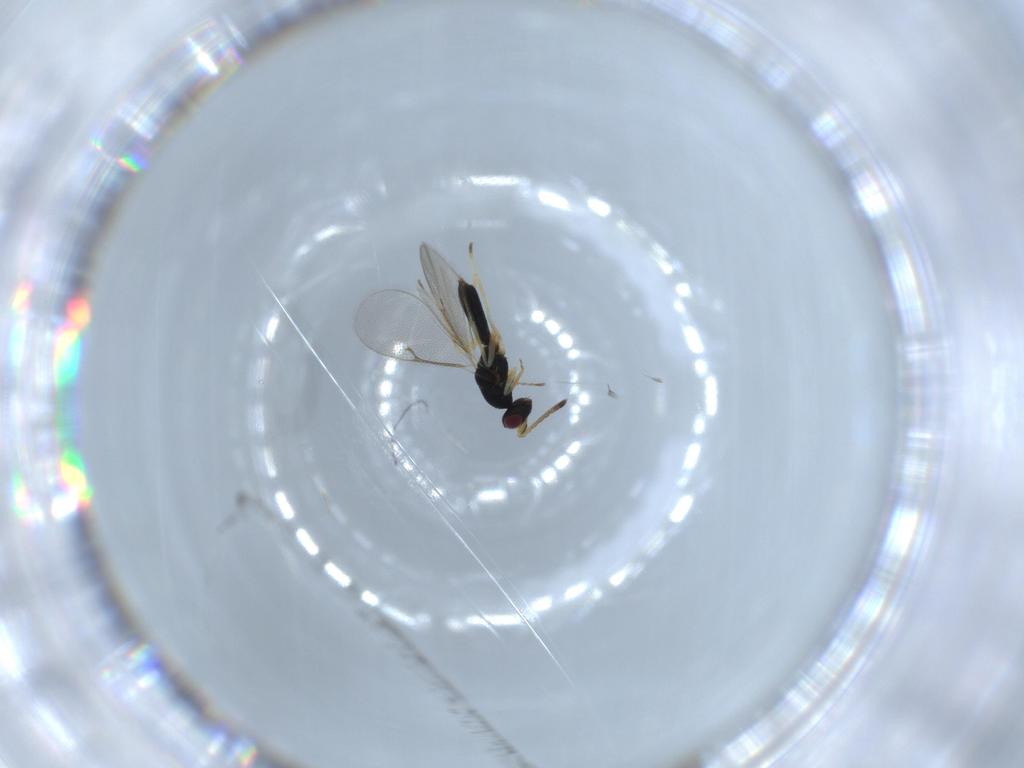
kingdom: Animalia
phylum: Arthropoda
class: Insecta
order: Hymenoptera
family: Eulophidae
